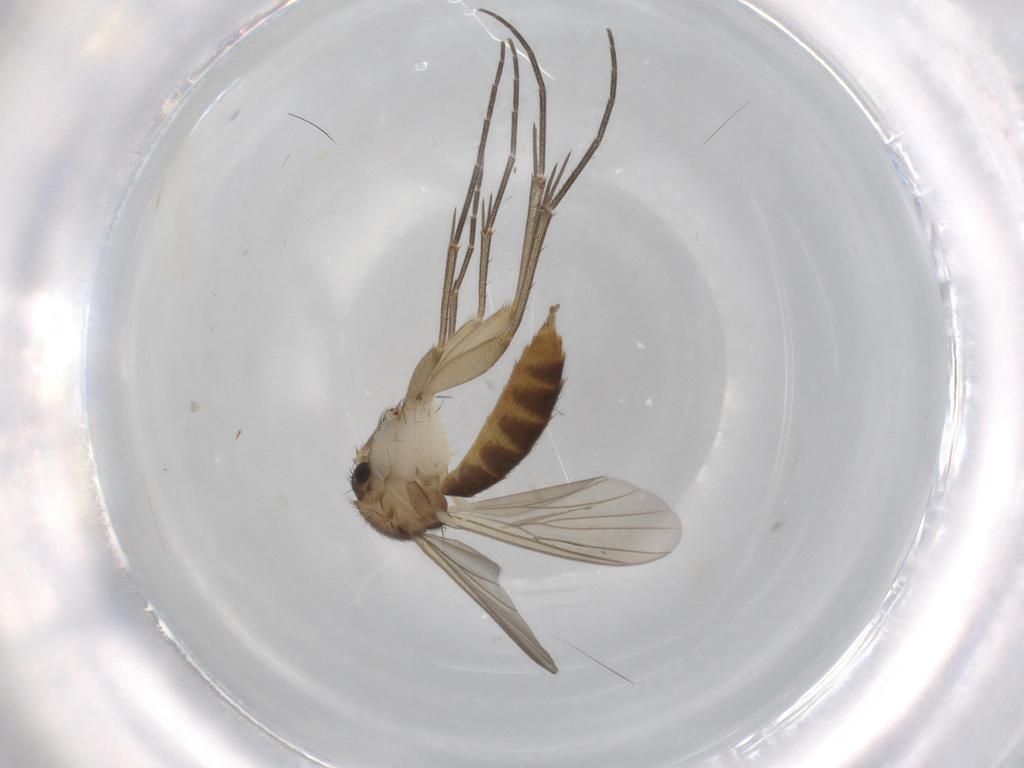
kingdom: Animalia
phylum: Arthropoda
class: Insecta
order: Diptera
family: Mycetophilidae
